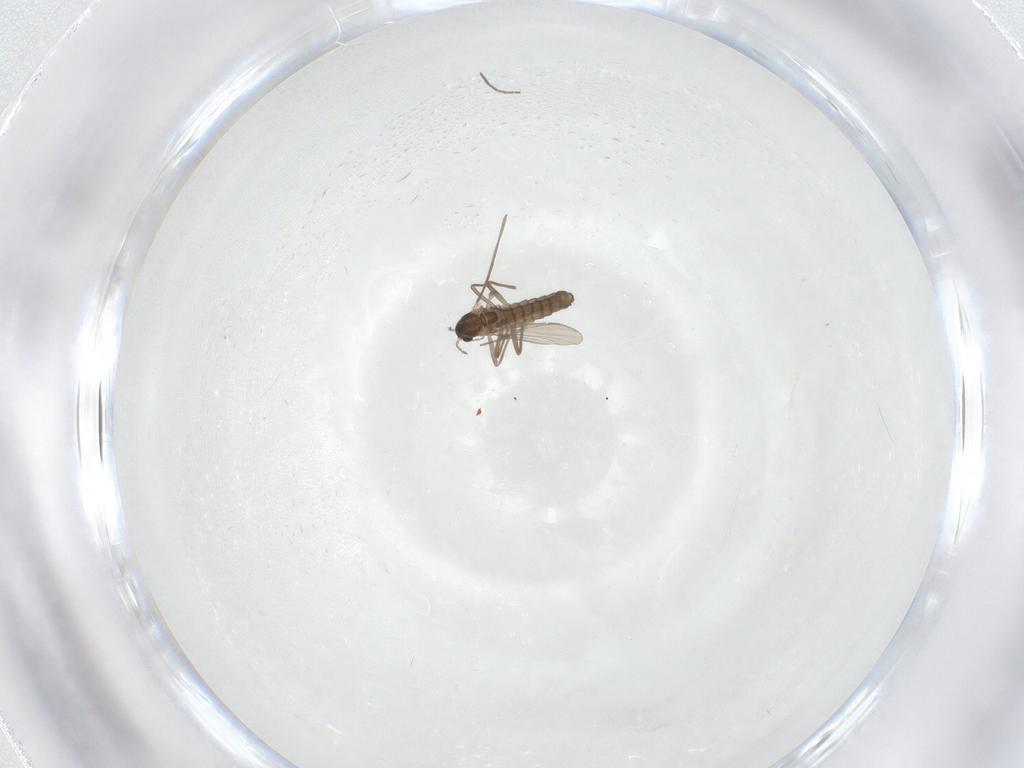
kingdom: Animalia
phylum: Arthropoda
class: Insecta
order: Diptera
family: Chironomidae
